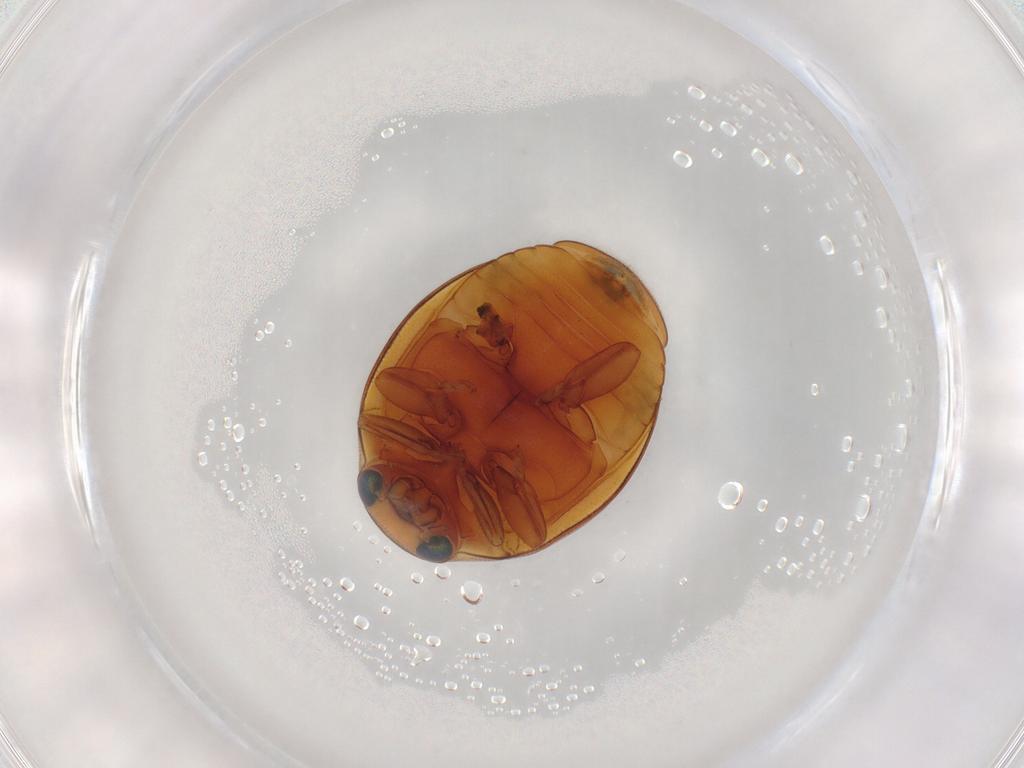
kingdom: Animalia
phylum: Arthropoda
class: Insecta
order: Coleoptera
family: Coccinellidae
